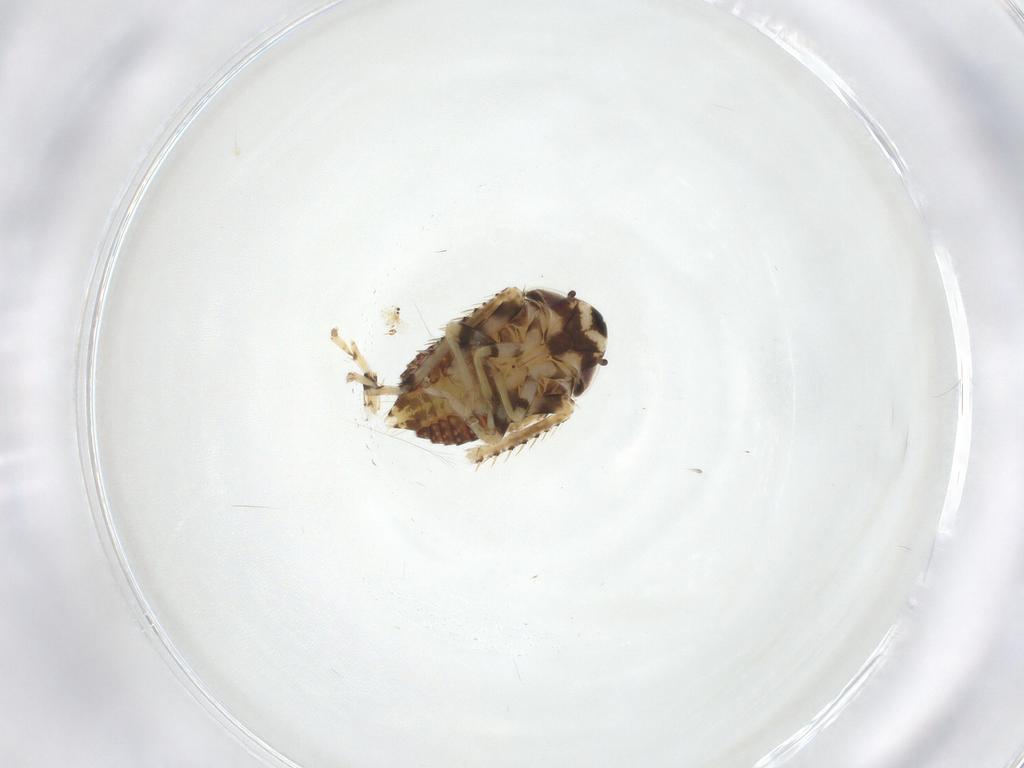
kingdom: Animalia
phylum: Arthropoda
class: Insecta
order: Hemiptera
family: Cicadellidae
